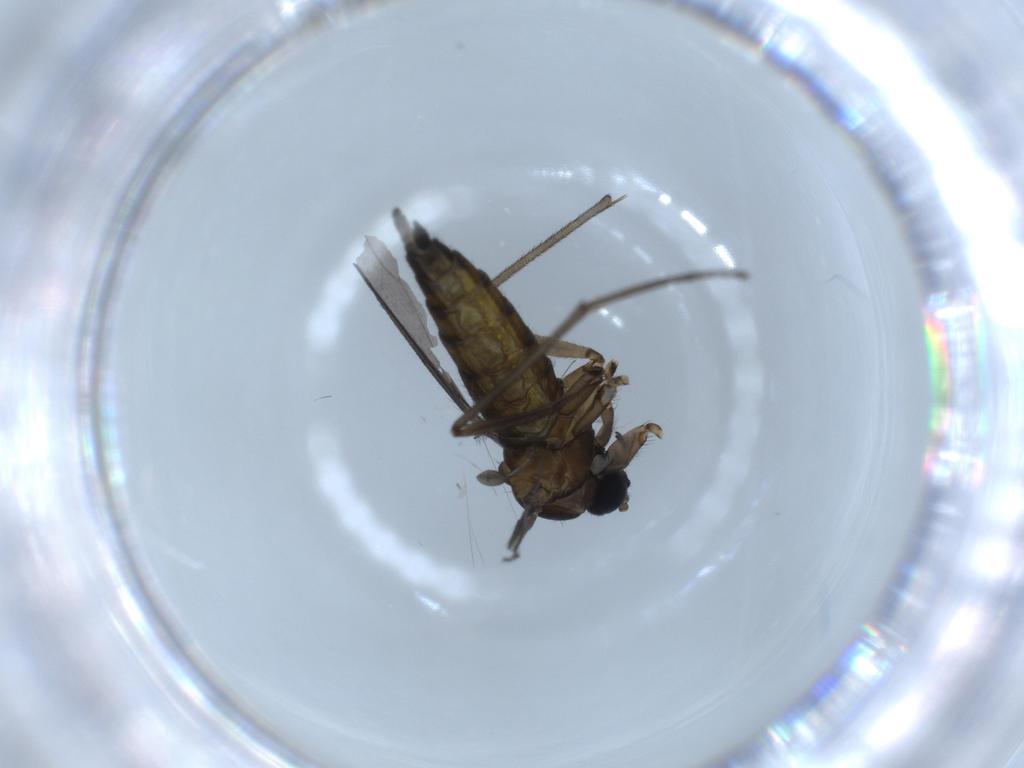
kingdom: Animalia
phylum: Arthropoda
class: Insecta
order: Diptera
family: Sciaridae
